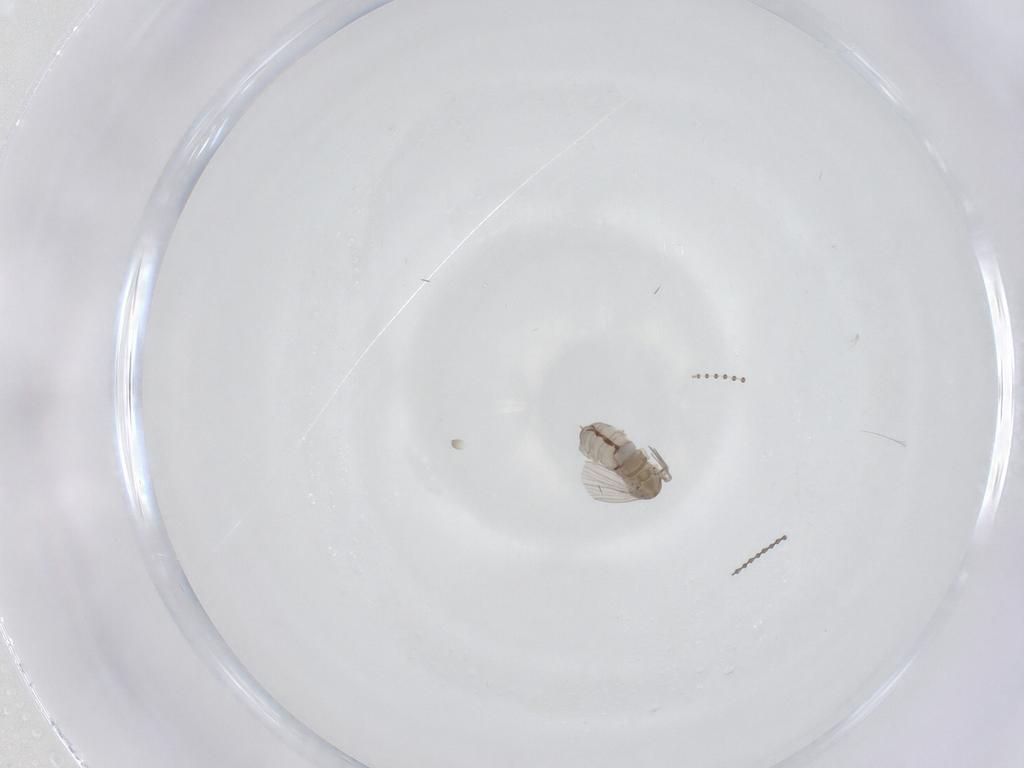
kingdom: Animalia
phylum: Arthropoda
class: Insecta
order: Diptera
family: Psychodidae
